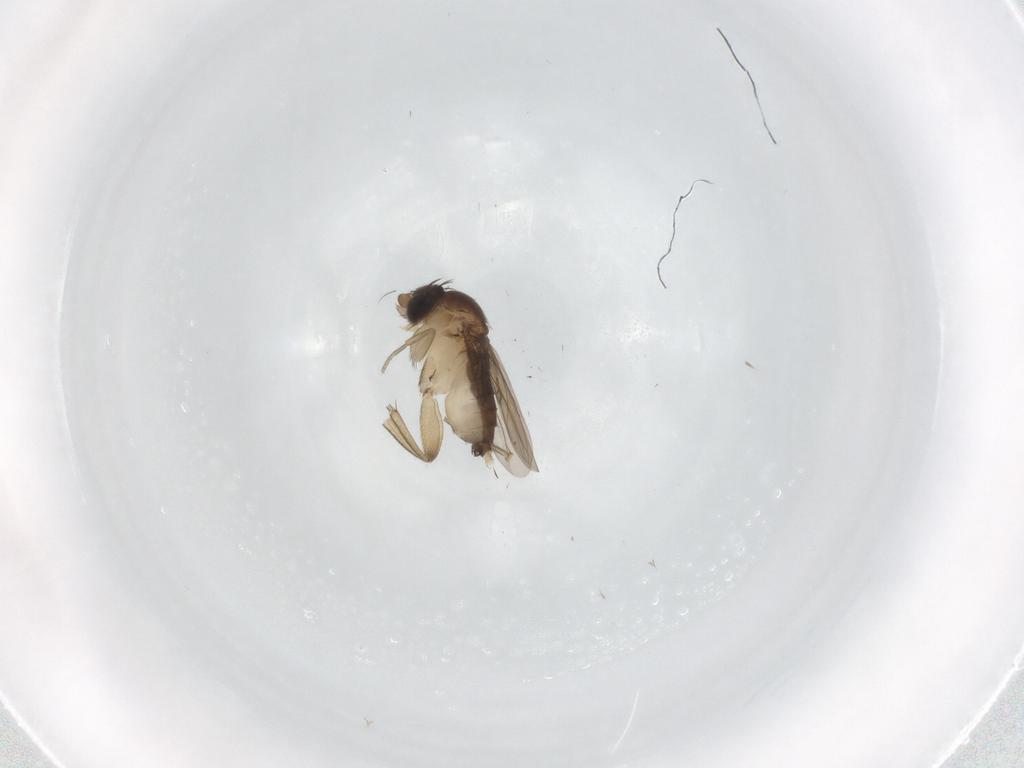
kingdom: Animalia
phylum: Arthropoda
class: Insecta
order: Diptera
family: Phoridae
